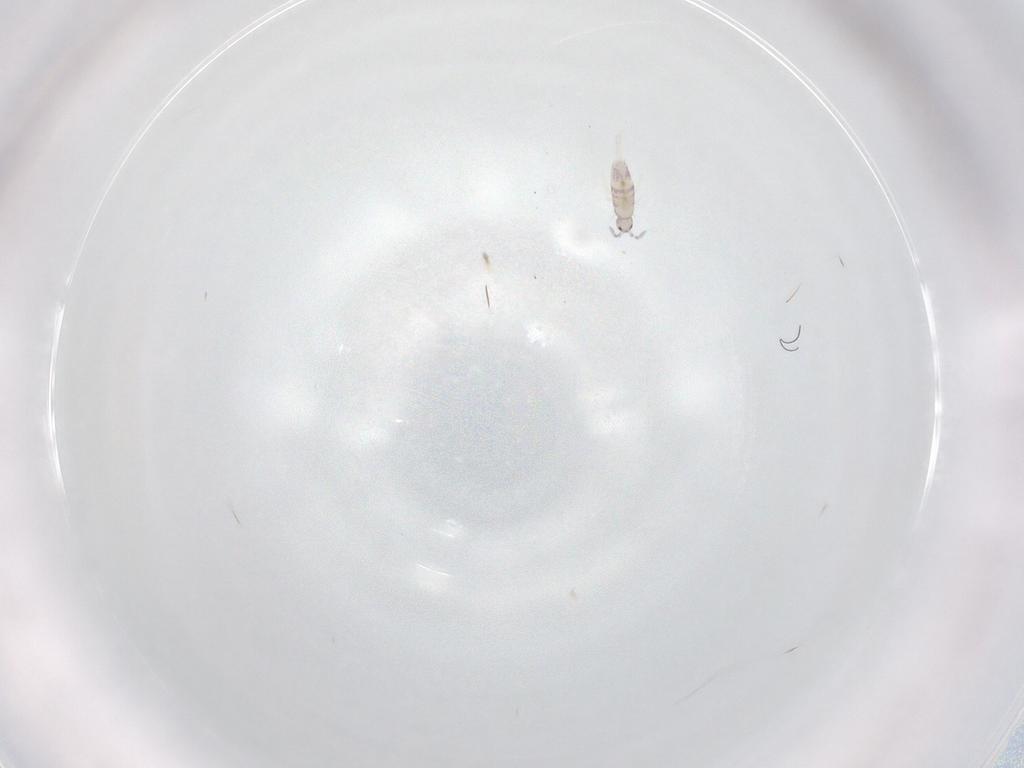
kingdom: Animalia
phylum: Arthropoda
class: Collembola
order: Entomobryomorpha
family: Entomobryidae
